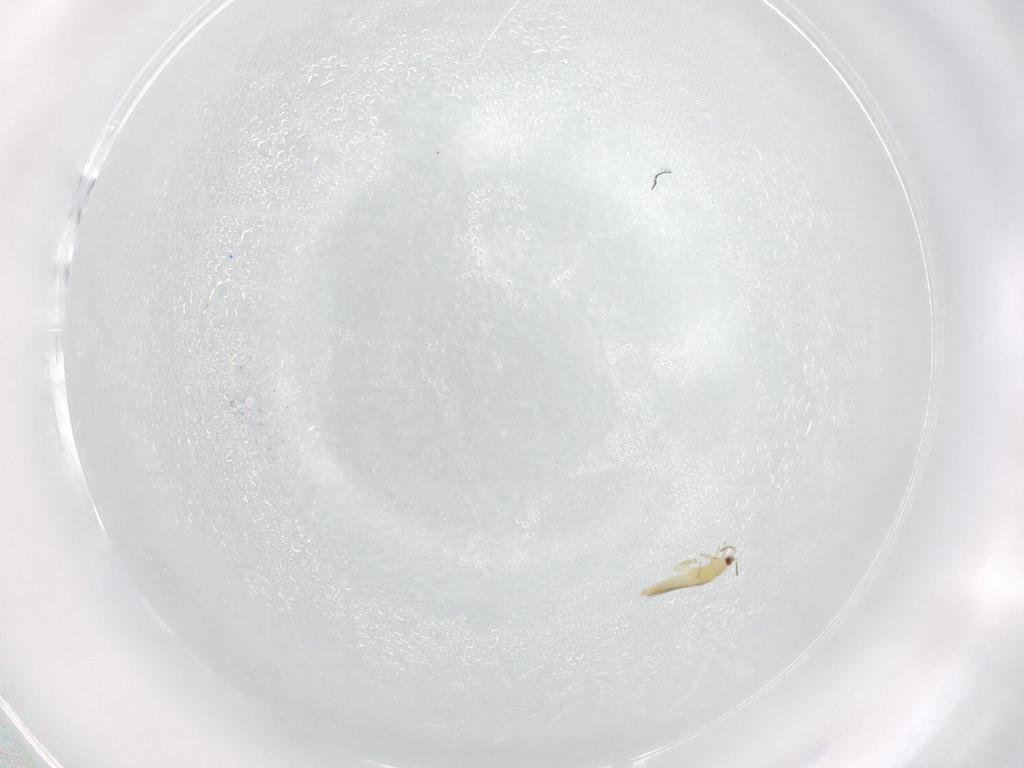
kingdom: Animalia
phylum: Arthropoda
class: Insecta
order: Thysanoptera
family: Thripidae
